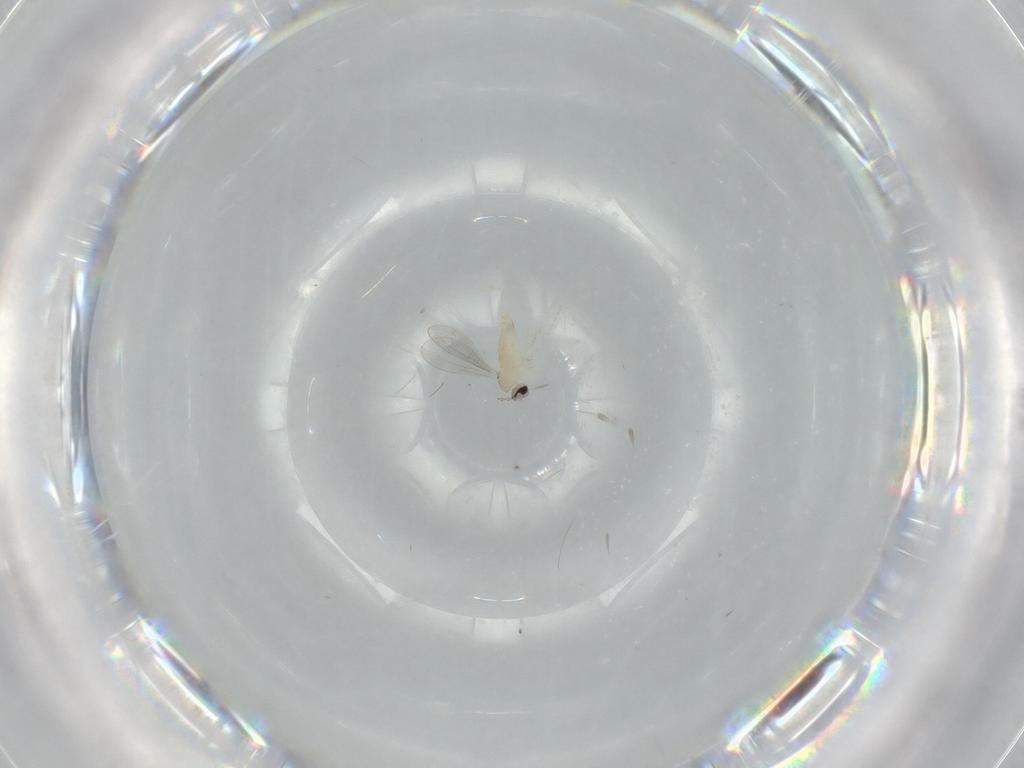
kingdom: Animalia
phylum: Arthropoda
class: Insecta
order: Diptera
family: Cecidomyiidae
